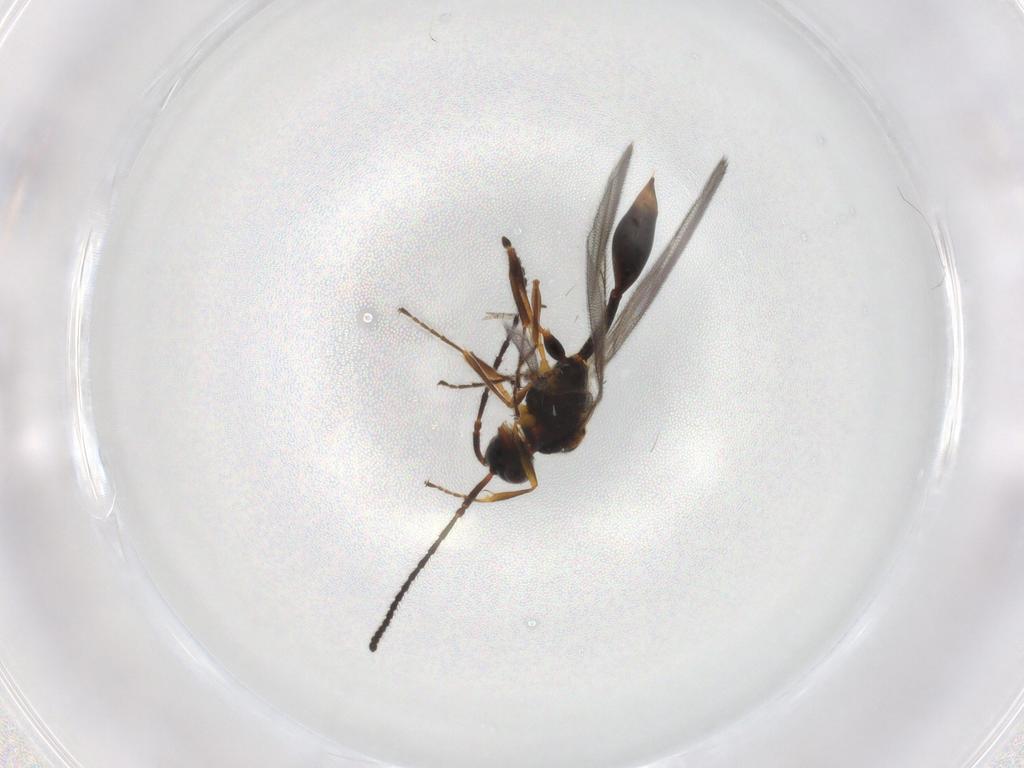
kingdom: Animalia
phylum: Arthropoda
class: Insecta
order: Hymenoptera
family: Diapriidae
